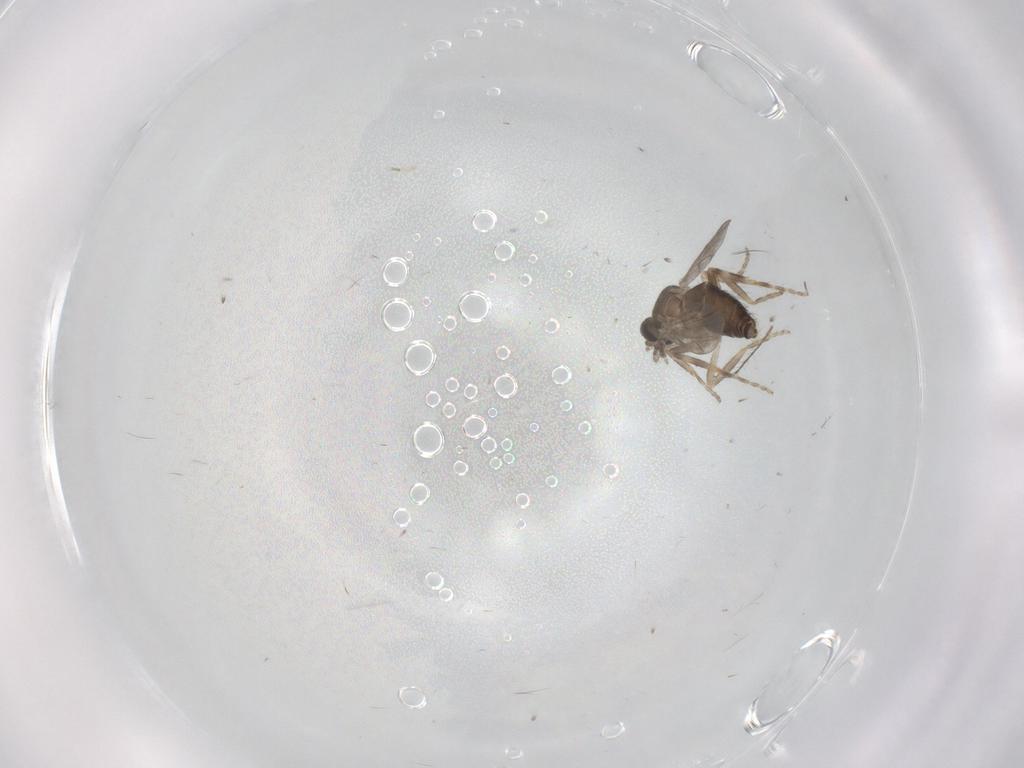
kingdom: Animalia
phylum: Arthropoda
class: Insecta
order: Diptera
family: Ceratopogonidae
